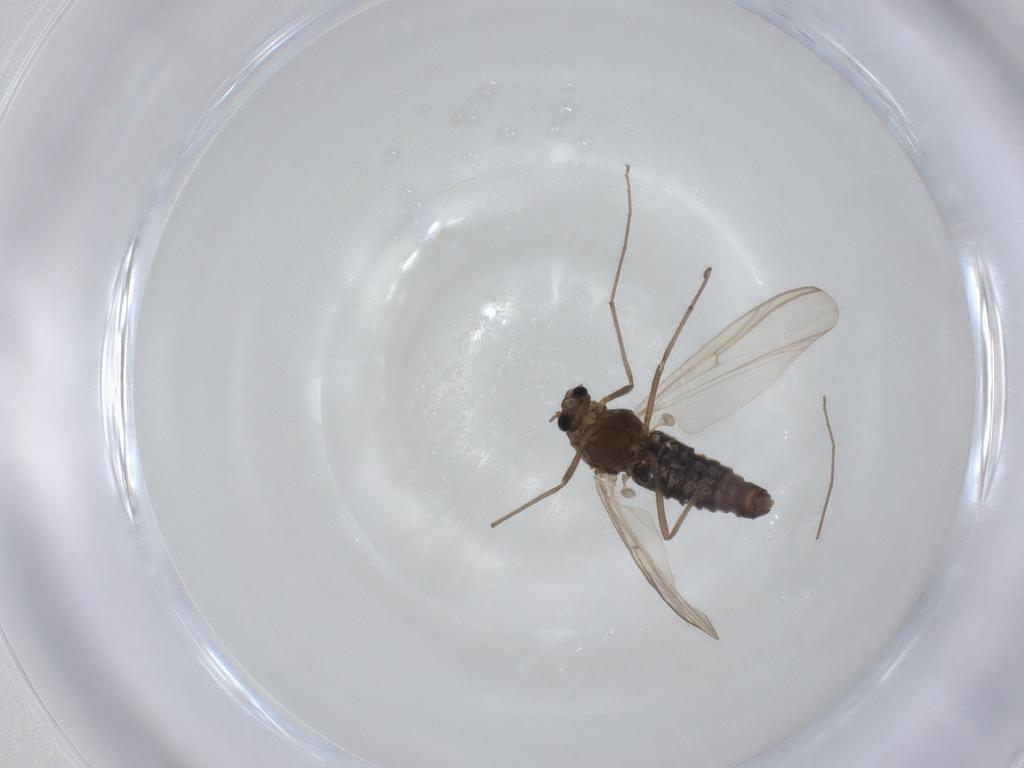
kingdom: Animalia
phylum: Arthropoda
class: Insecta
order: Diptera
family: Chironomidae
